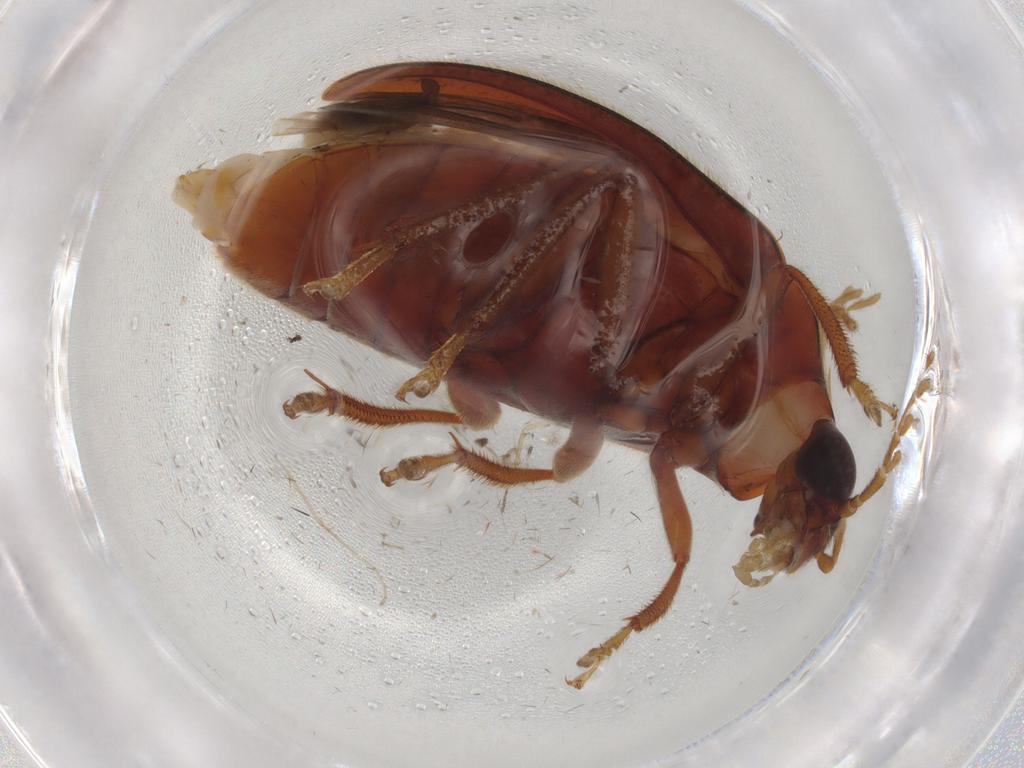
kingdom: Animalia
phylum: Arthropoda
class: Insecta
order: Coleoptera
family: Ptilodactylidae
